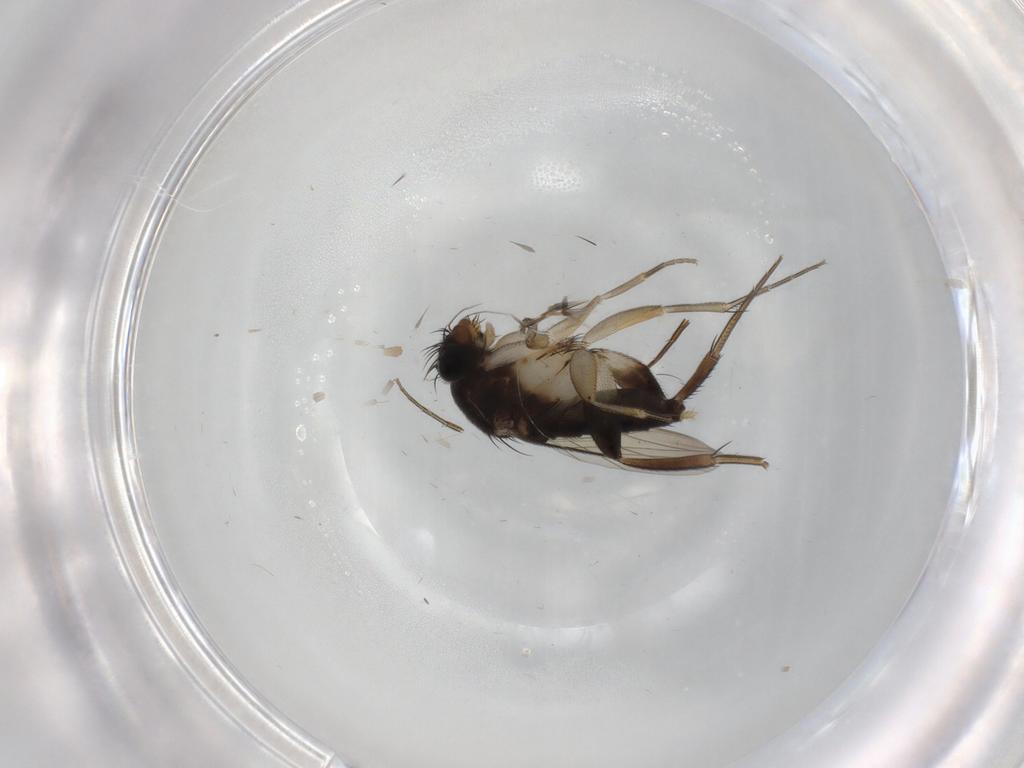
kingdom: Animalia
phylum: Arthropoda
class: Insecta
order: Diptera
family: Phoridae
